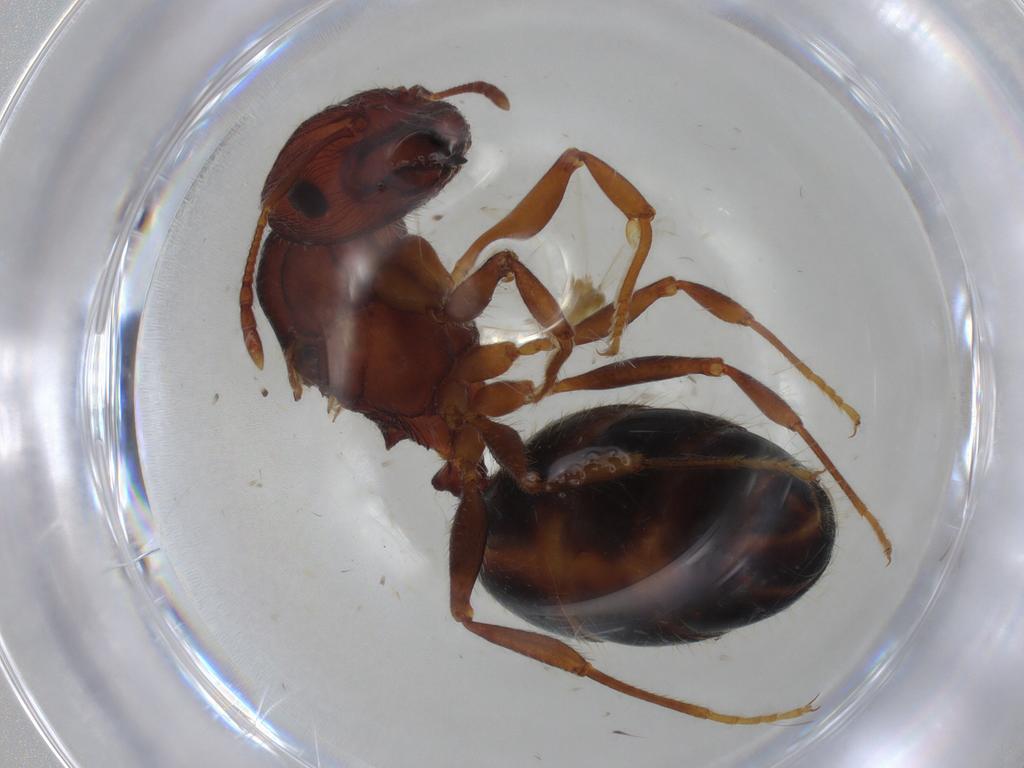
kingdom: Animalia
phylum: Arthropoda
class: Insecta
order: Hymenoptera
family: Formicidae
